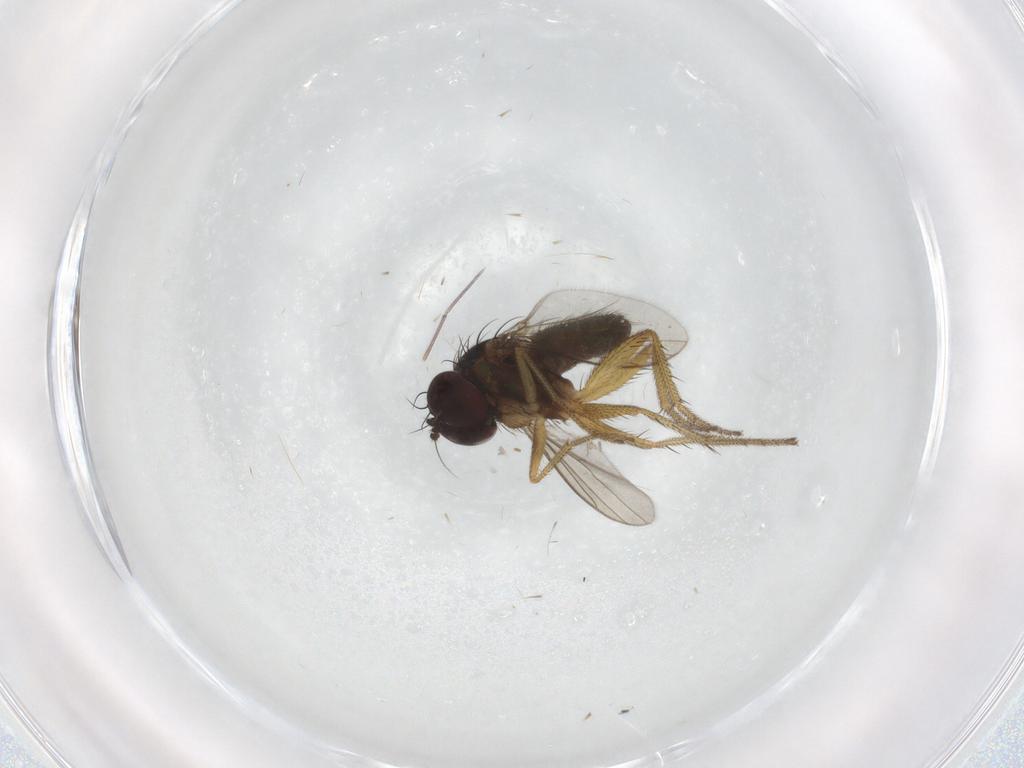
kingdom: Animalia
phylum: Arthropoda
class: Insecta
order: Diptera
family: Dolichopodidae
